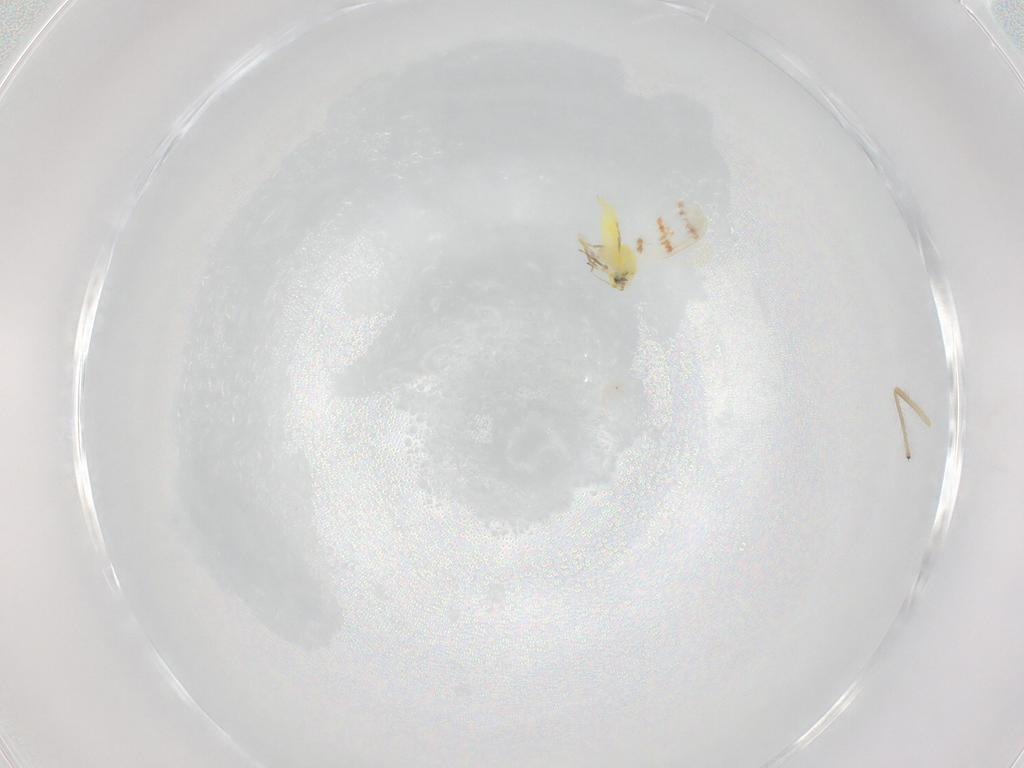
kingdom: Animalia
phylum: Arthropoda
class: Insecta
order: Hemiptera
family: Aleyrodidae
